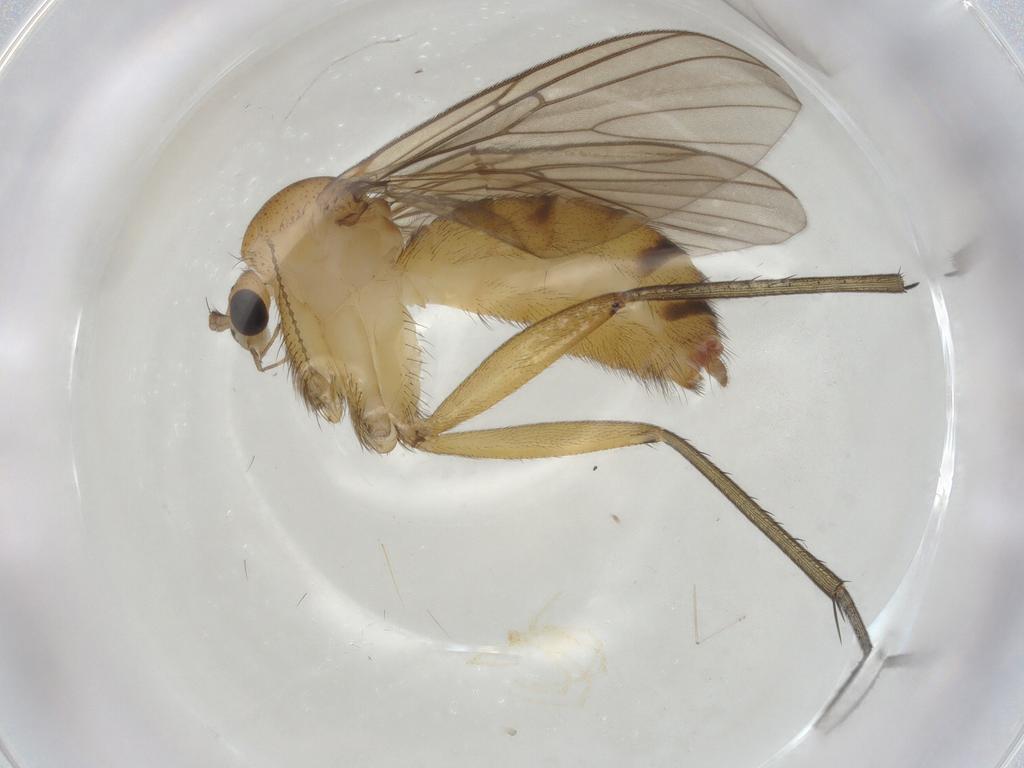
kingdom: Animalia
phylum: Arthropoda
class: Insecta
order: Diptera
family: Mycetophilidae
